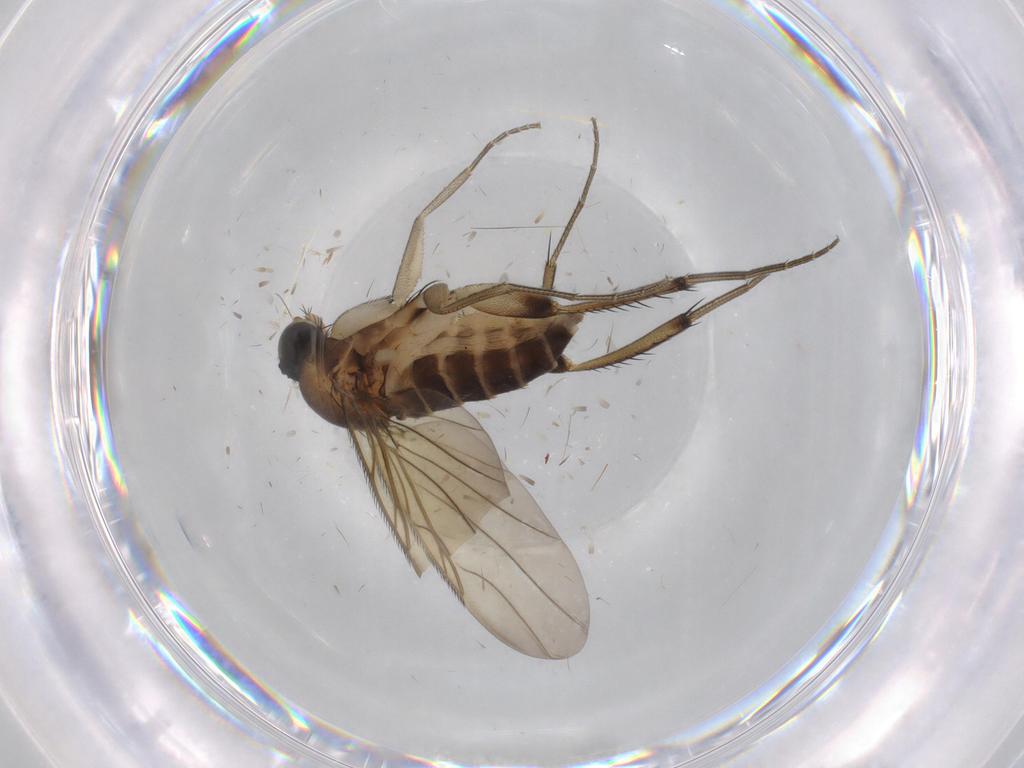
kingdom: Animalia
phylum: Arthropoda
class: Insecta
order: Diptera
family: Phoridae
